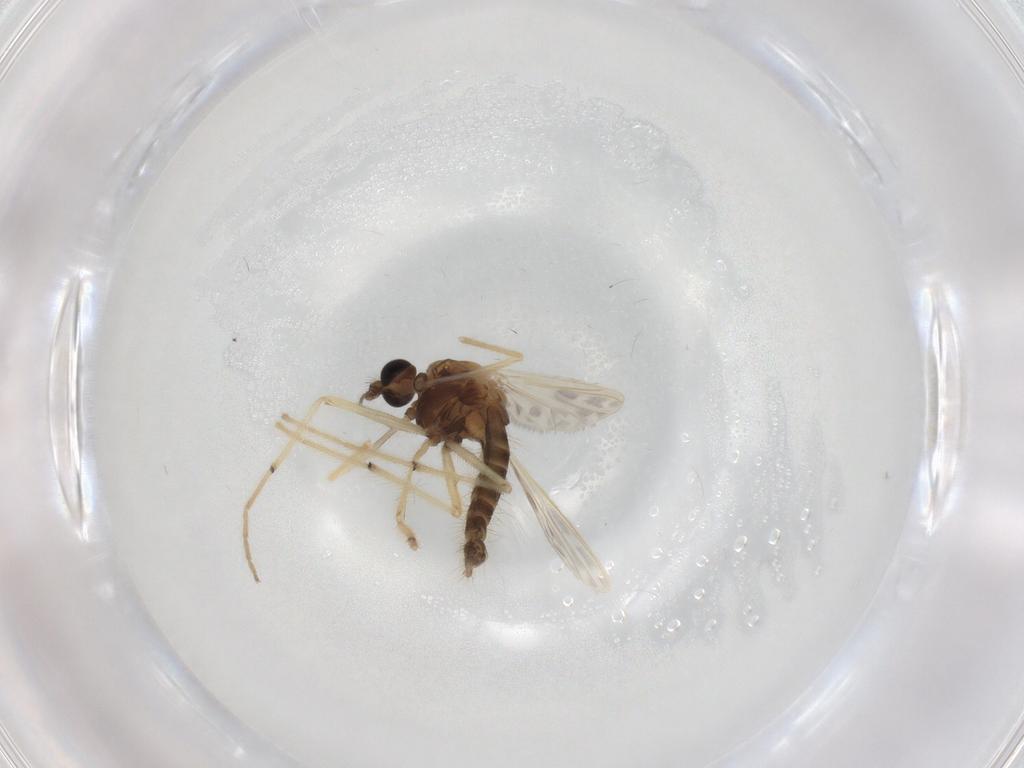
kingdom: Animalia
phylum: Arthropoda
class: Insecta
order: Diptera
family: Chironomidae
